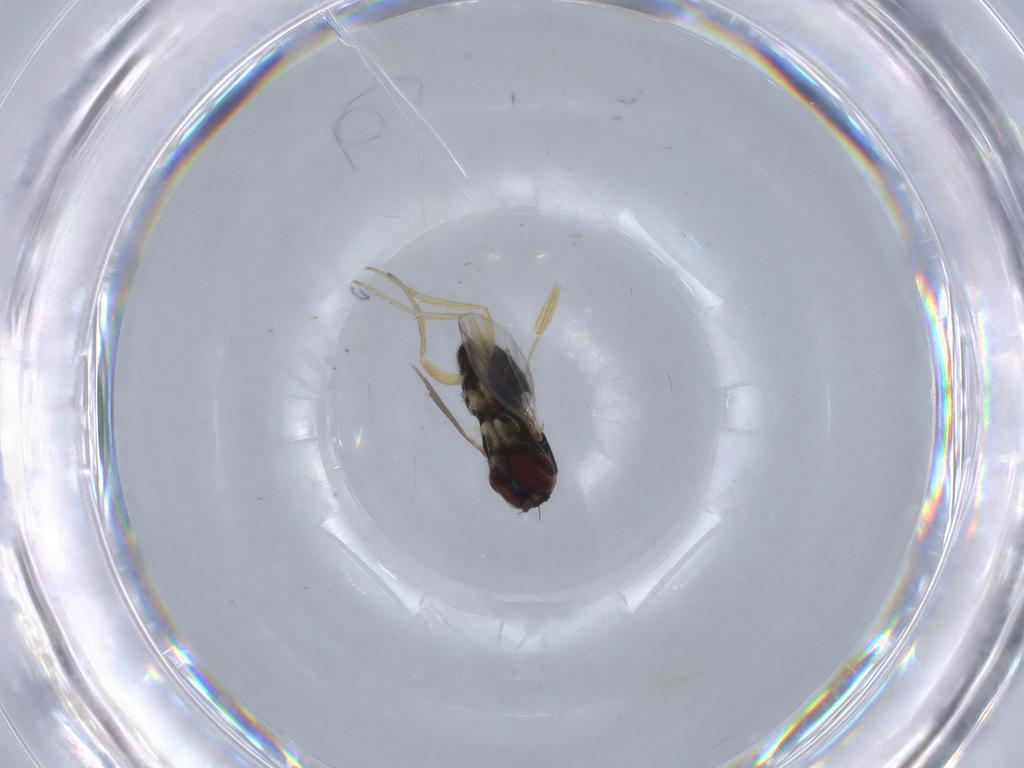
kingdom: Animalia
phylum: Arthropoda
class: Insecta
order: Diptera
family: Dolichopodidae
